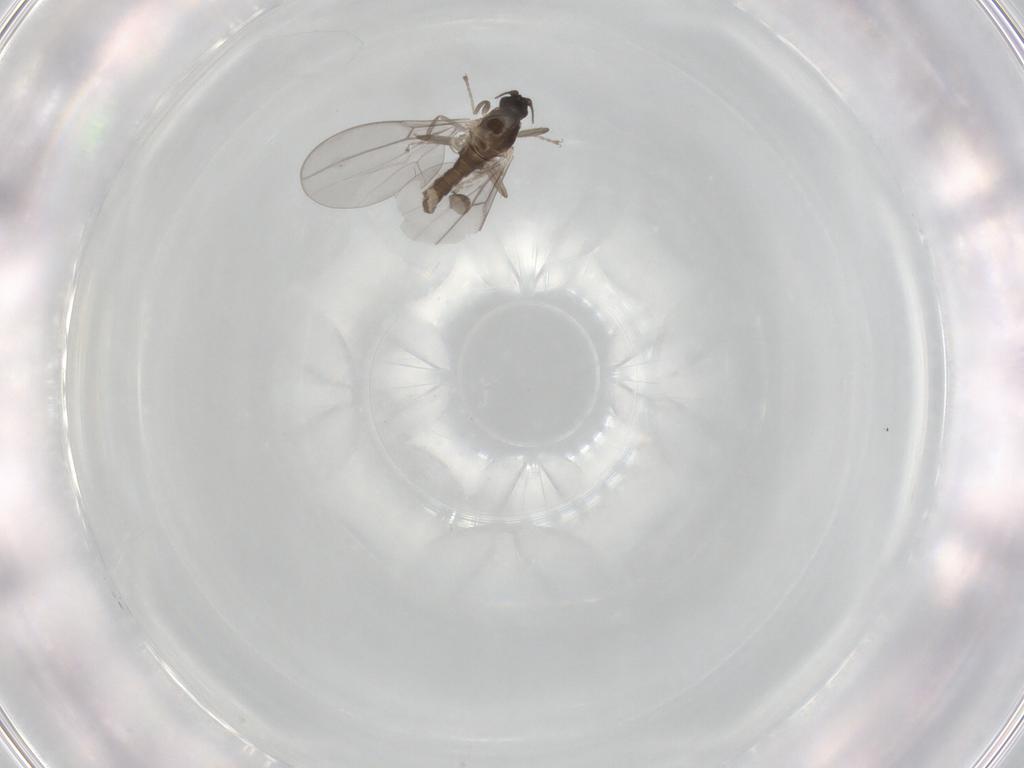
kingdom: Animalia
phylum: Arthropoda
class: Insecta
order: Diptera
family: Cecidomyiidae
